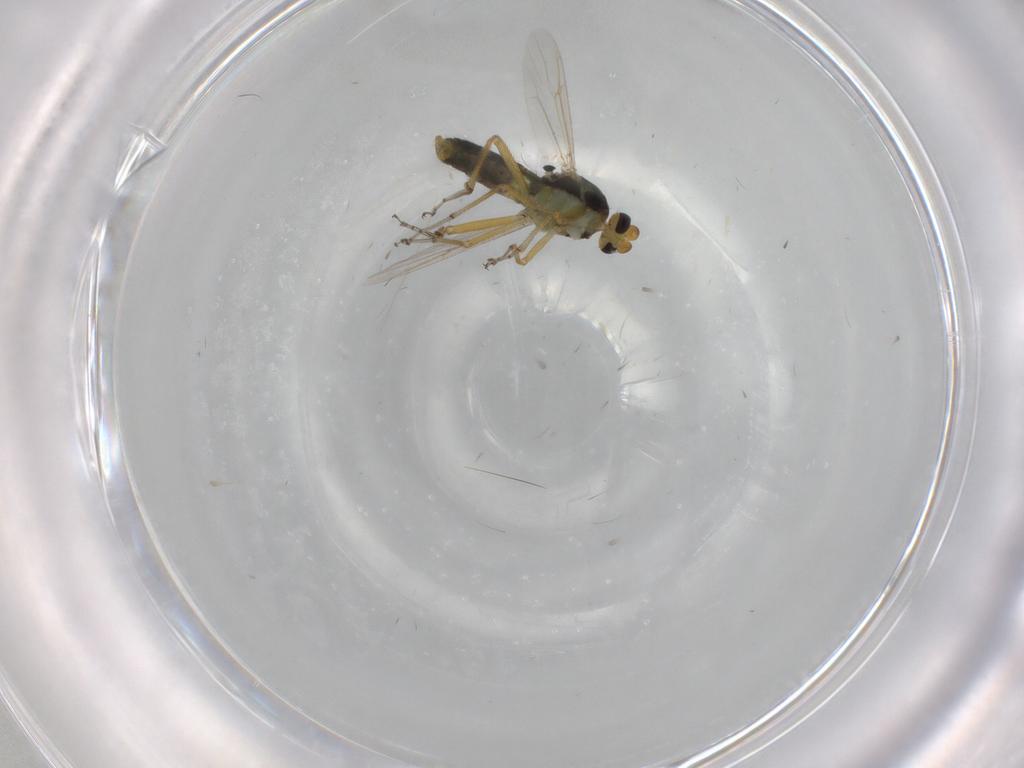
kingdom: Animalia
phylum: Arthropoda
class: Insecta
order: Diptera
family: Ceratopogonidae
